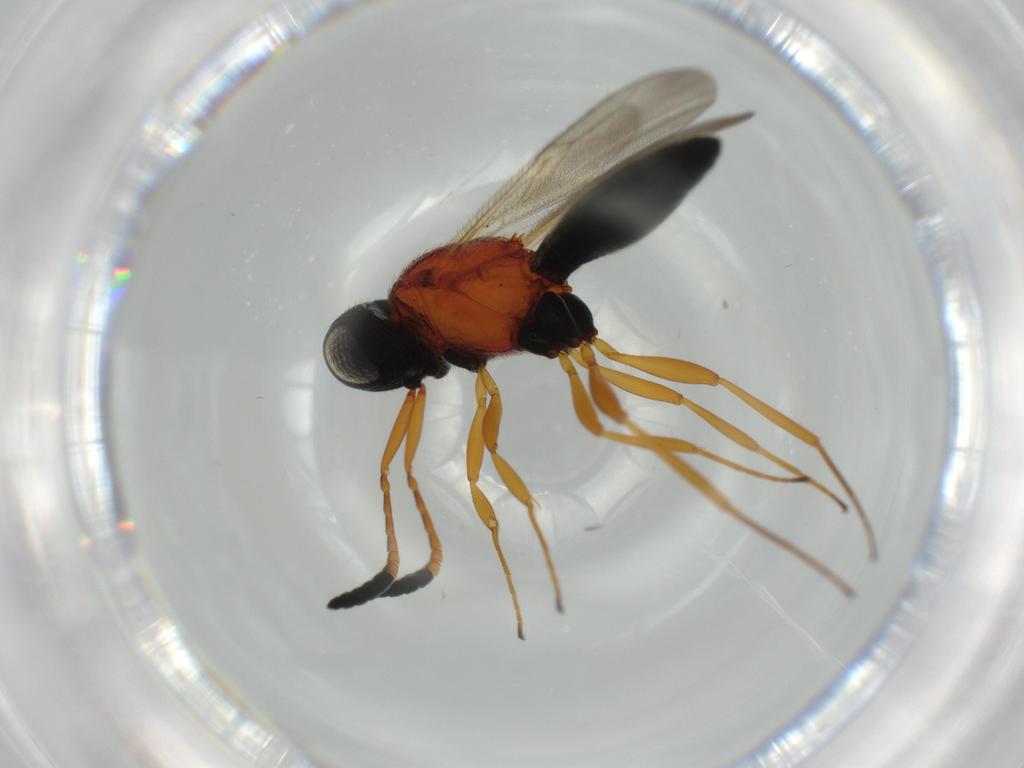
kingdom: Animalia
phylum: Arthropoda
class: Insecta
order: Hymenoptera
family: Scelionidae
